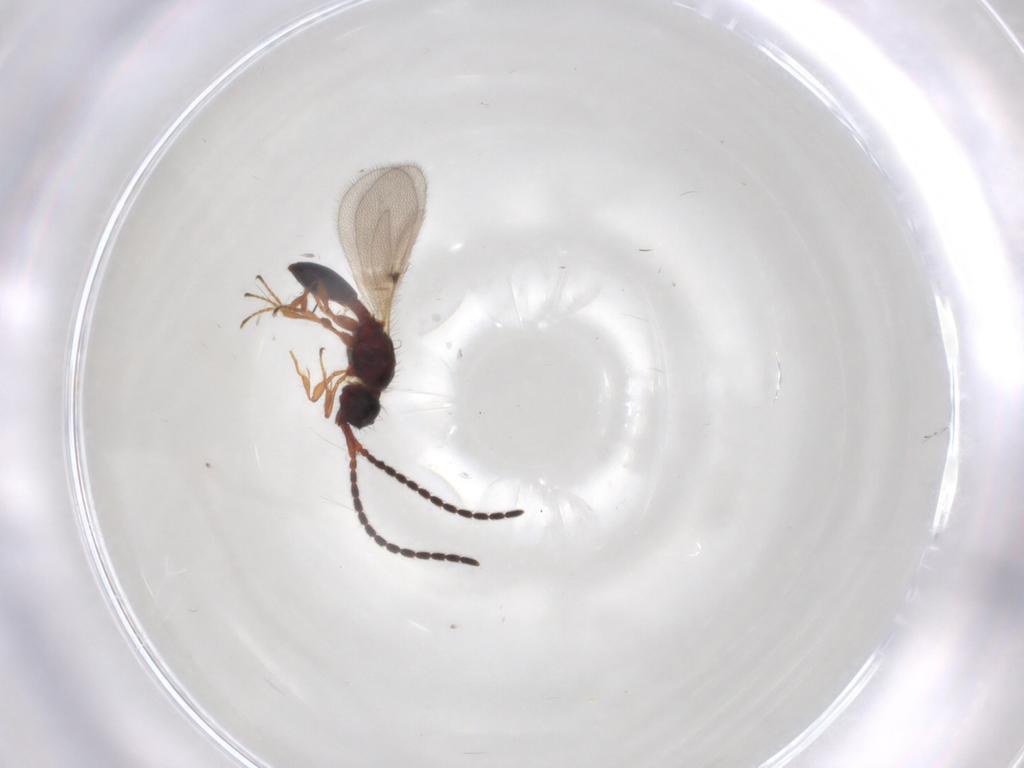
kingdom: Animalia
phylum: Arthropoda
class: Insecta
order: Hymenoptera
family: Diapriidae
